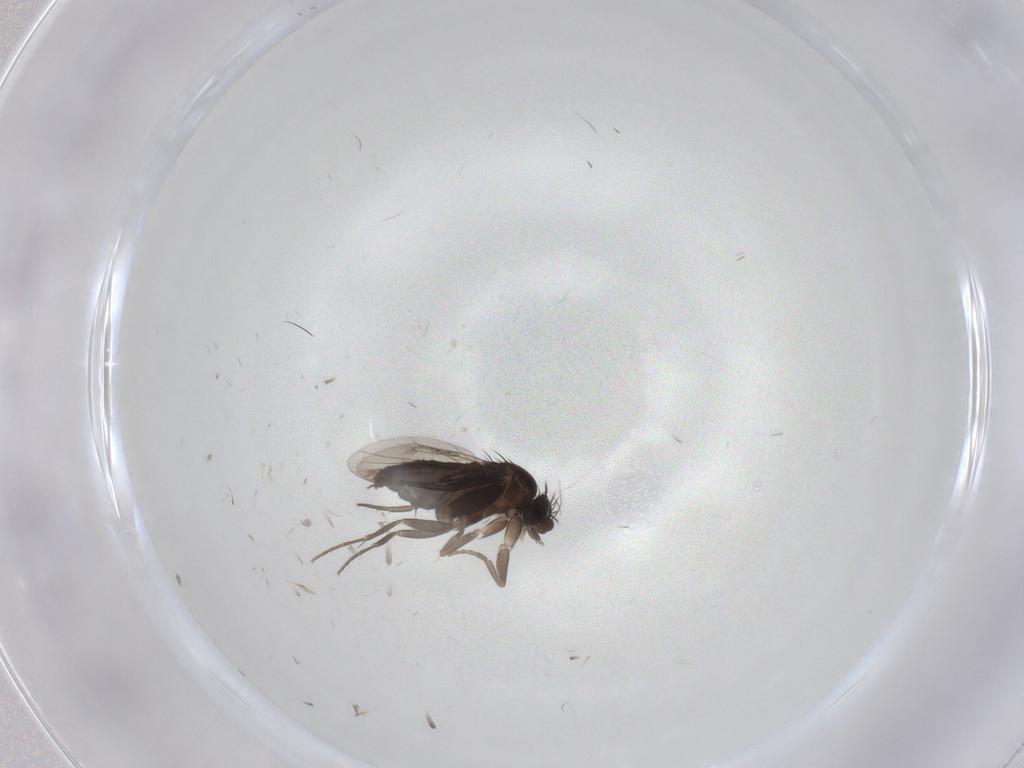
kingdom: Animalia
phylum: Arthropoda
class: Insecta
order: Diptera
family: Phoridae
